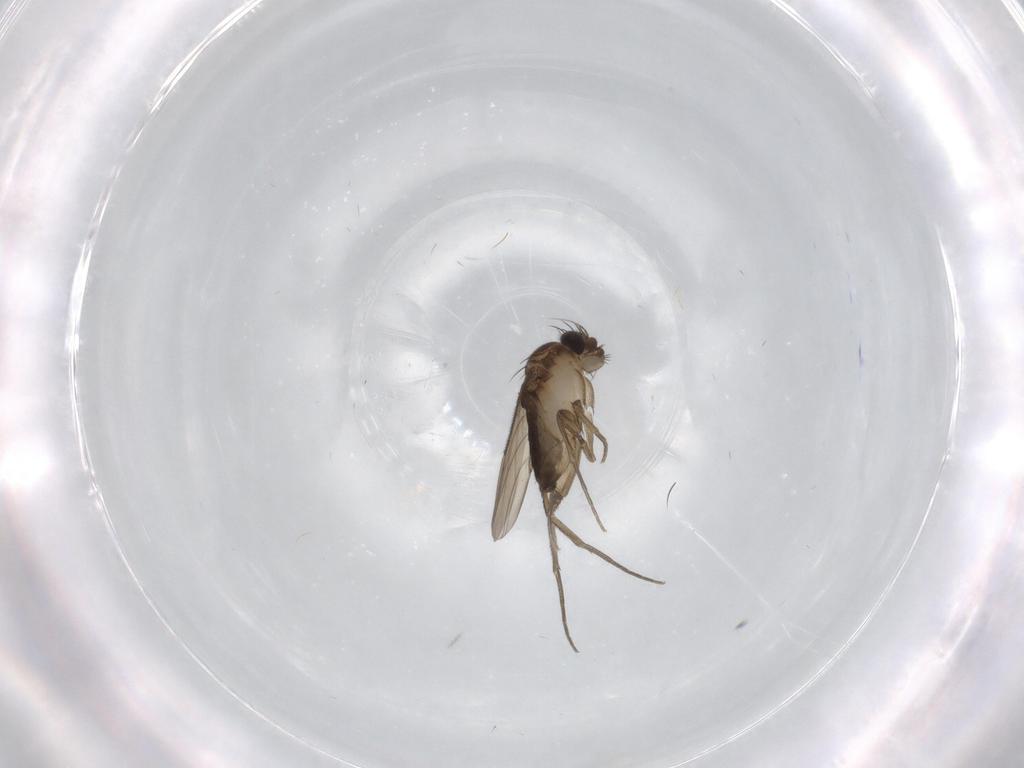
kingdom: Animalia
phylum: Arthropoda
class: Insecta
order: Diptera
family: Phoridae
